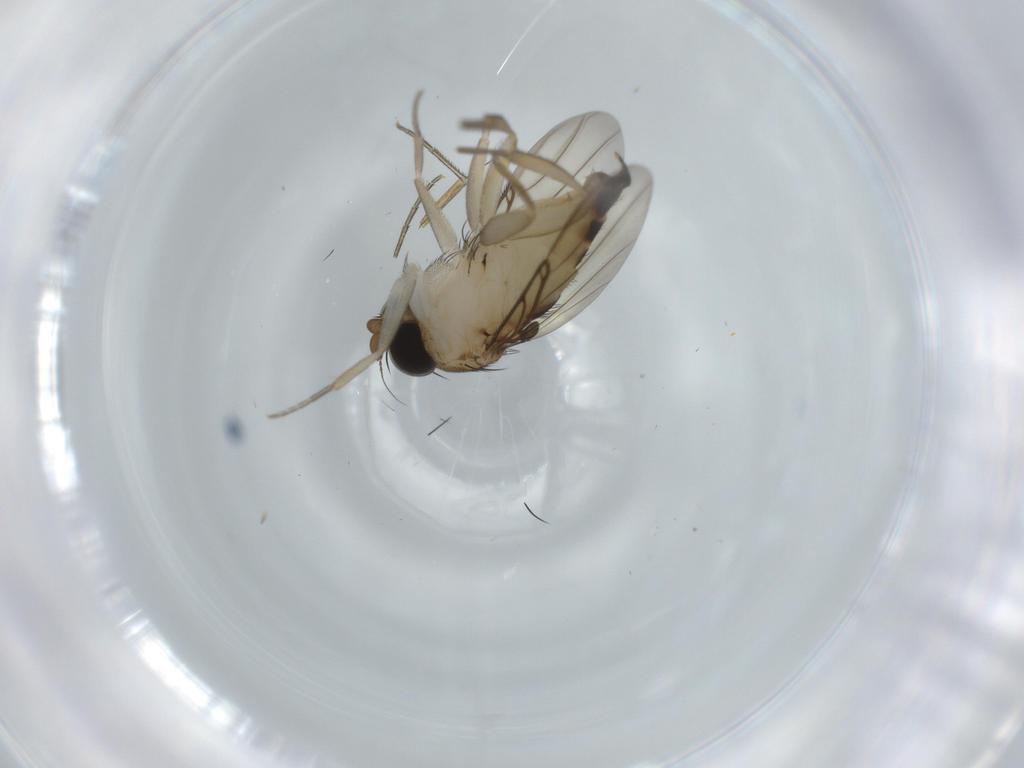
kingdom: Animalia
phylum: Arthropoda
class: Insecta
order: Diptera
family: Phoridae
